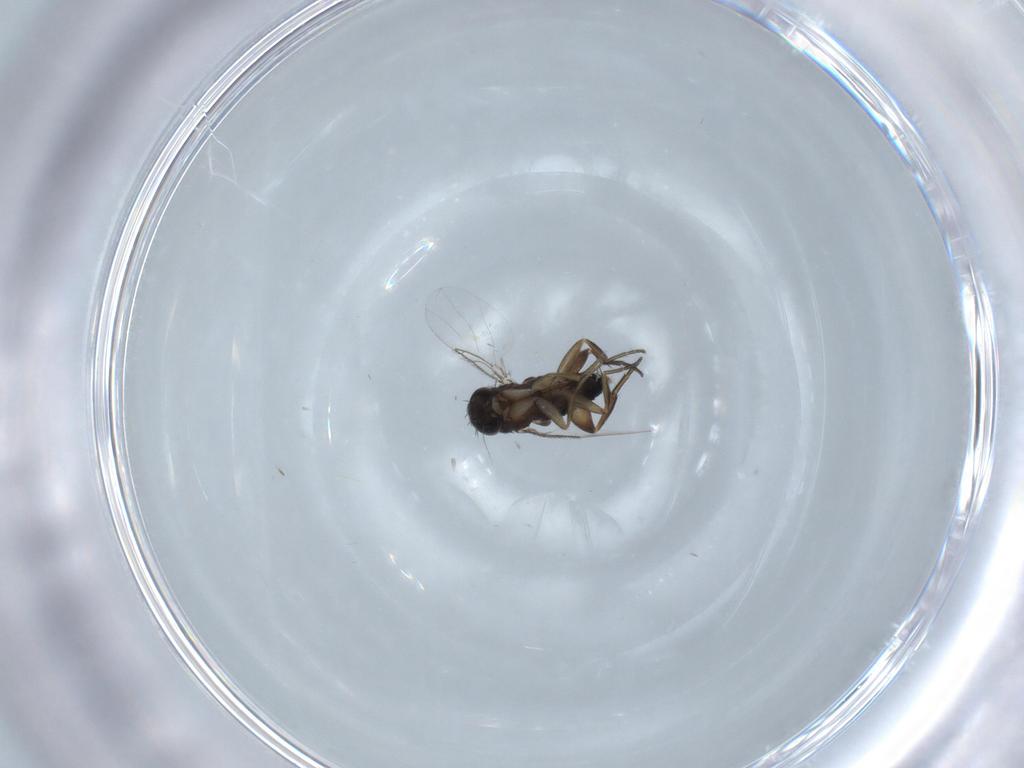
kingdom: Animalia
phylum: Arthropoda
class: Insecta
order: Diptera
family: Phoridae
